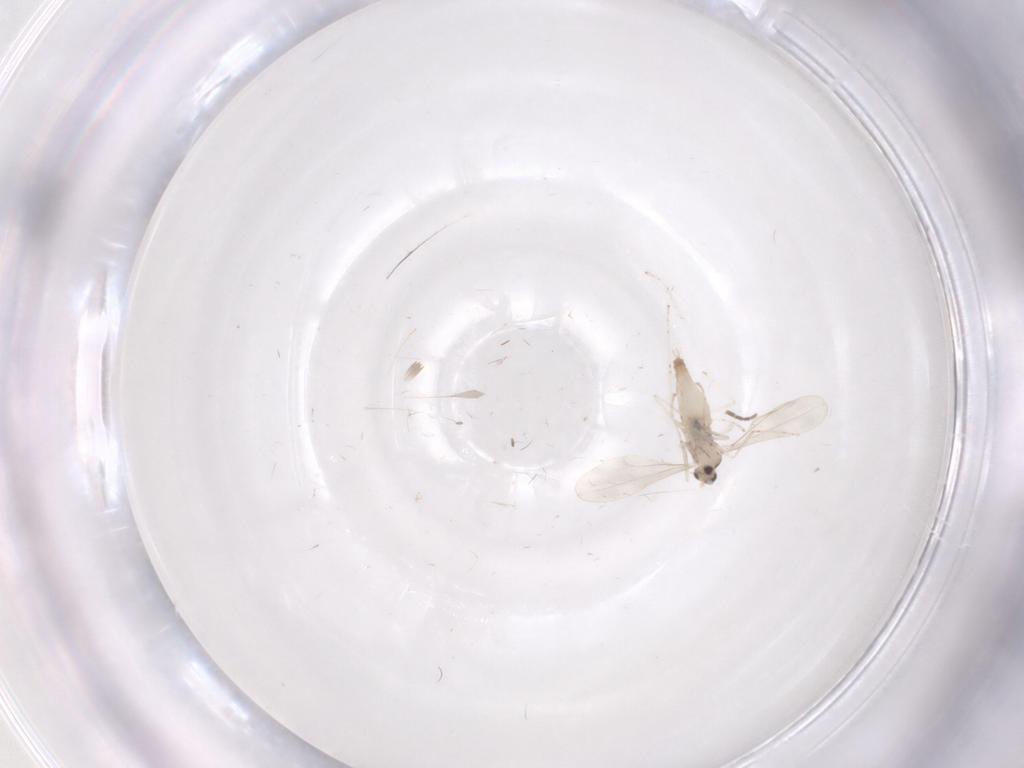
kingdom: Animalia
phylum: Arthropoda
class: Insecta
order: Diptera
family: Cecidomyiidae
